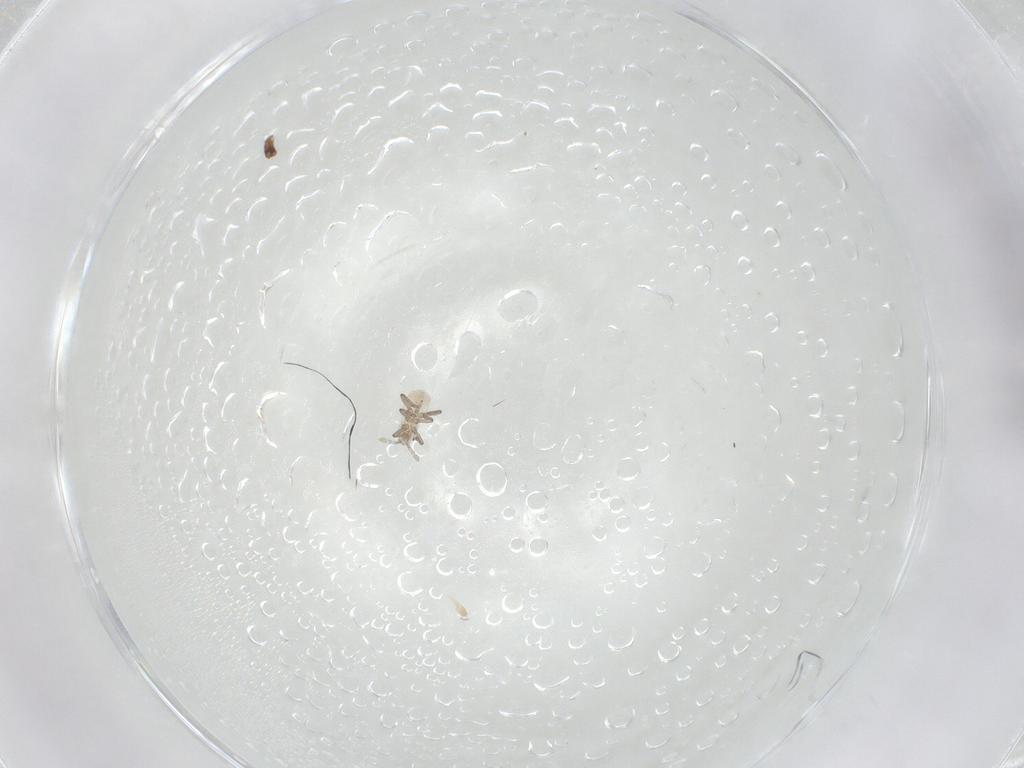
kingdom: Animalia
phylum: Arthropoda
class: Insecta
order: Hemiptera
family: Aphididae
